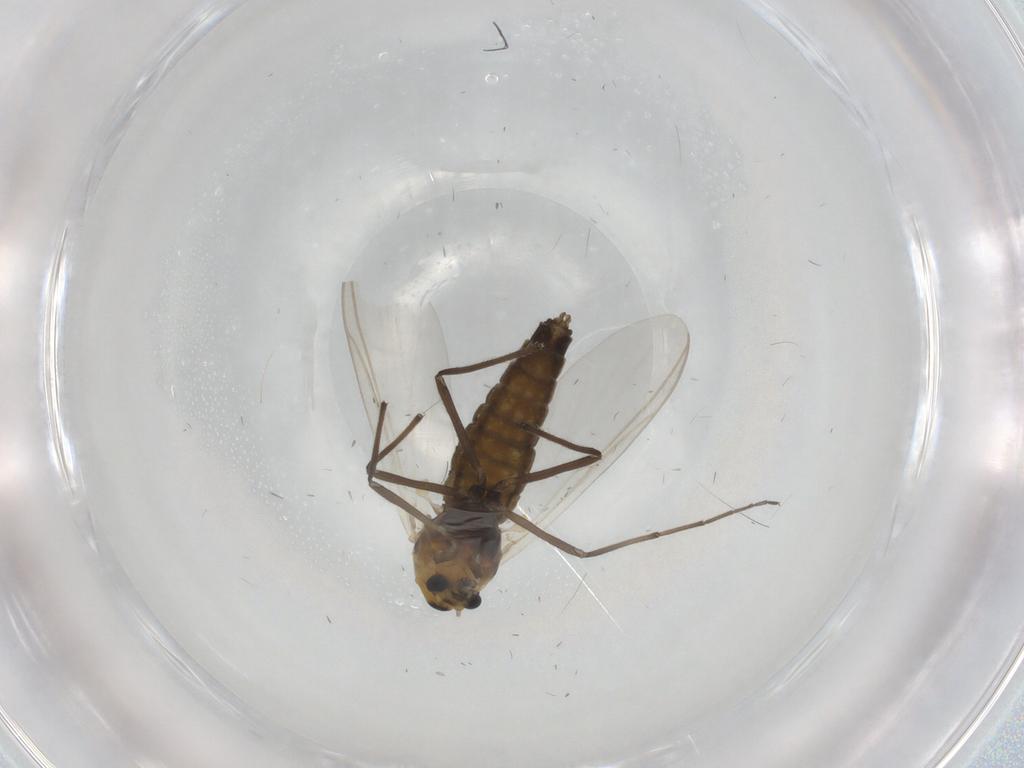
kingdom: Animalia
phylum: Arthropoda
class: Insecta
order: Diptera
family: Chironomidae
